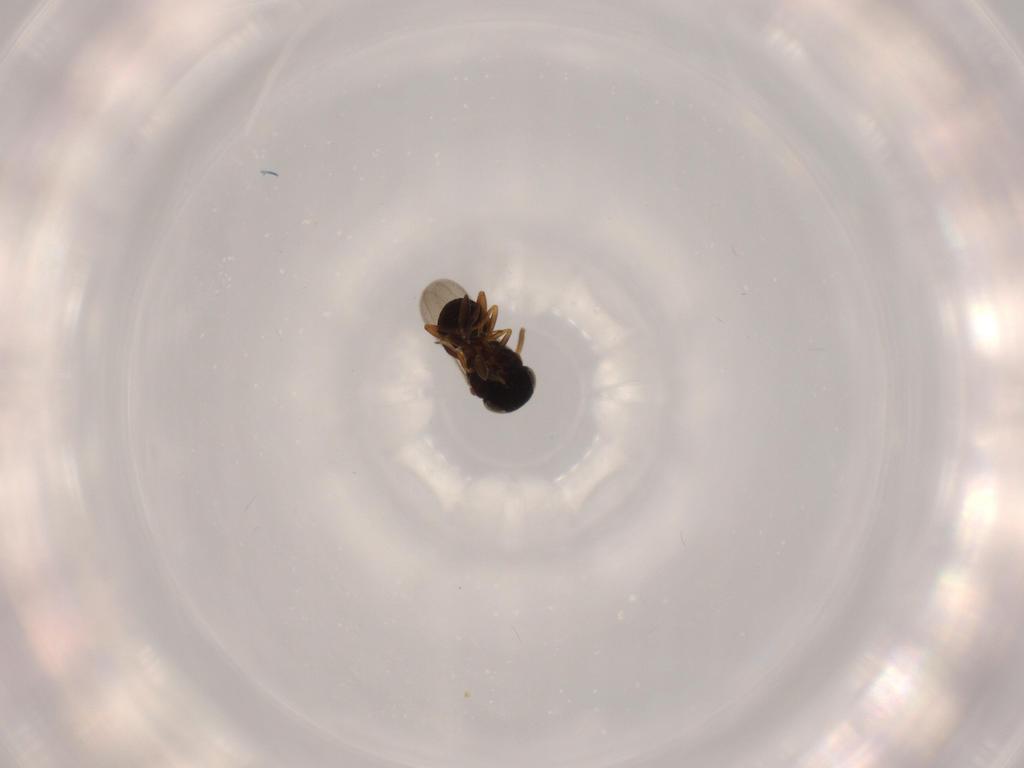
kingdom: Animalia
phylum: Arthropoda
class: Insecta
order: Coleoptera
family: Curculionidae
